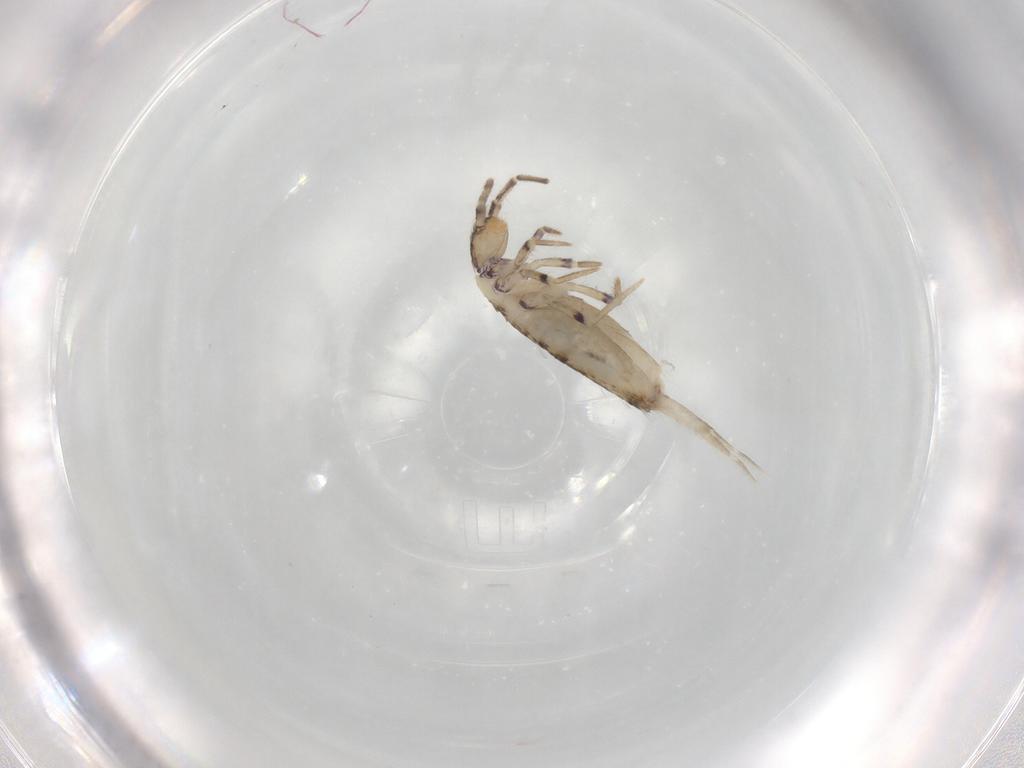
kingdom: Animalia
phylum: Arthropoda
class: Collembola
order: Entomobryomorpha
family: Entomobryidae
